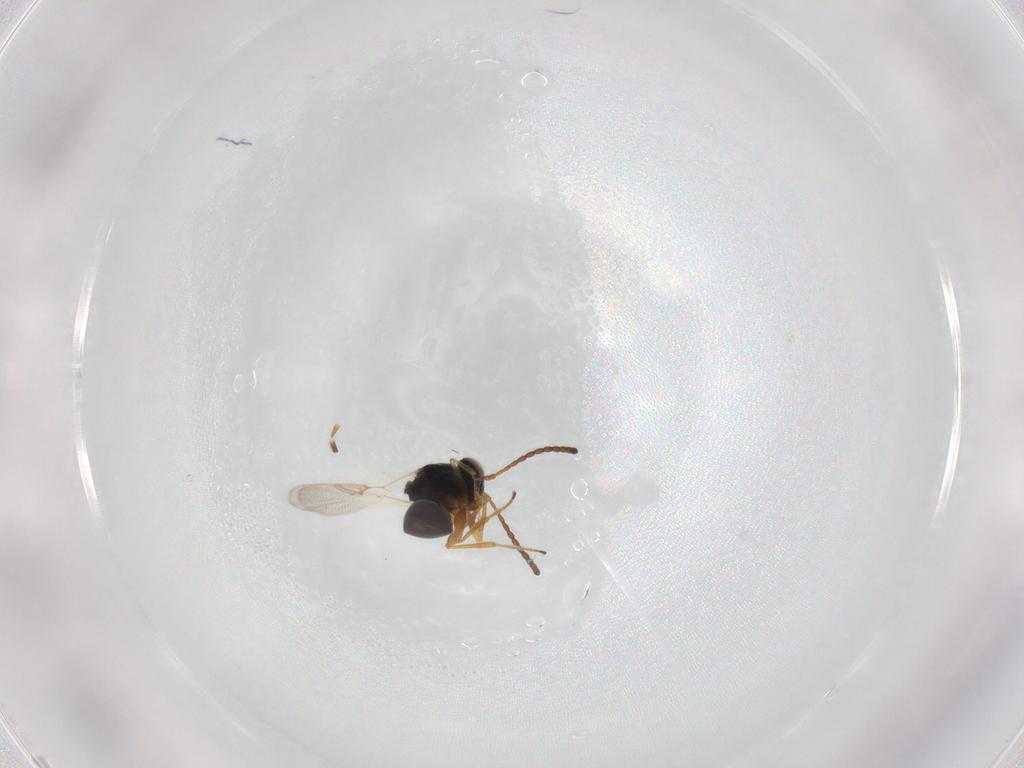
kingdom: Animalia
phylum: Arthropoda
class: Insecta
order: Hymenoptera
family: Figitidae
